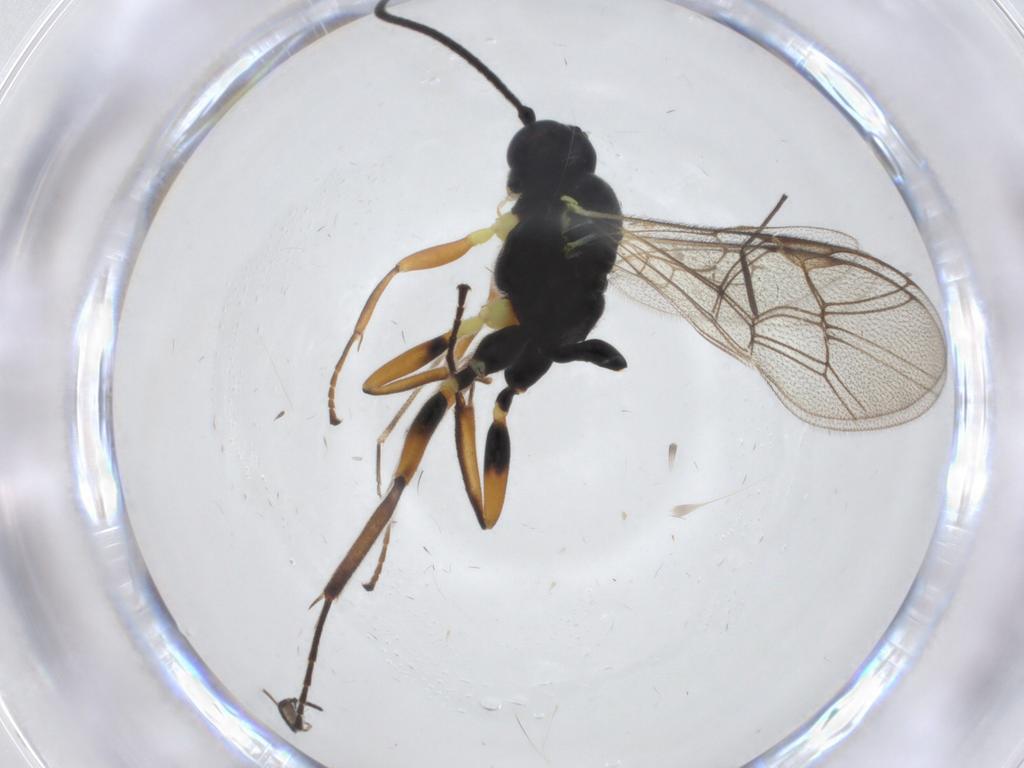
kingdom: Animalia
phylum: Arthropoda
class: Insecta
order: Hymenoptera
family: Ichneumonidae
